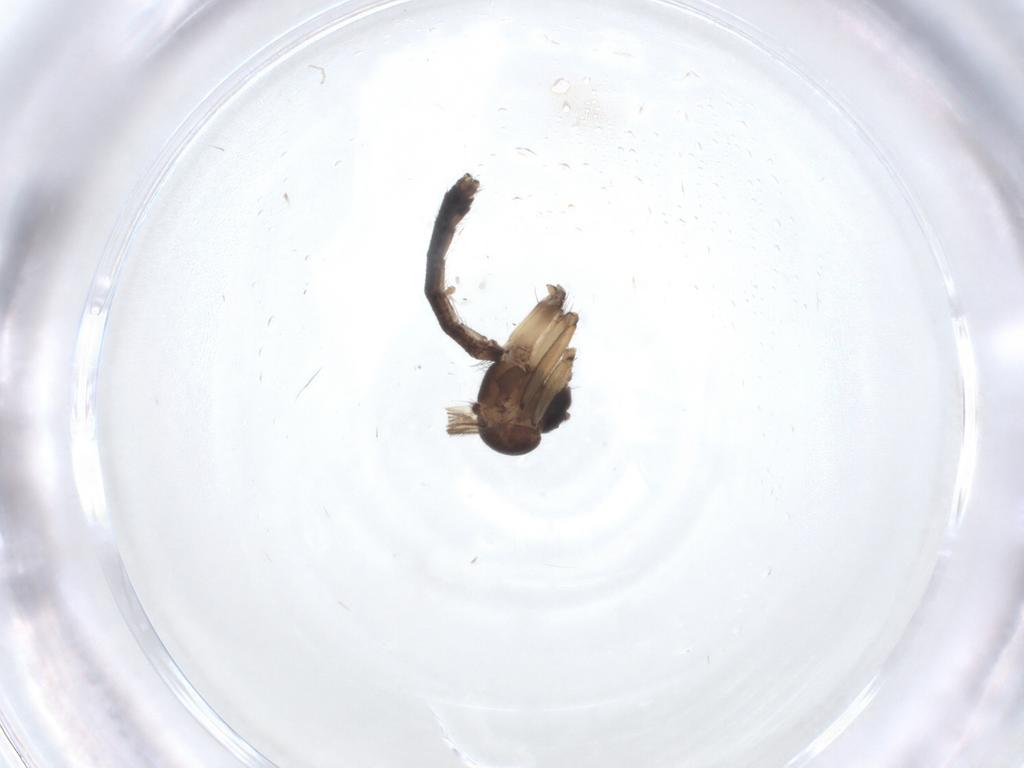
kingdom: Animalia
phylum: Arthropoda
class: Insecta
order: Diptera
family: Cecidomyiidae
